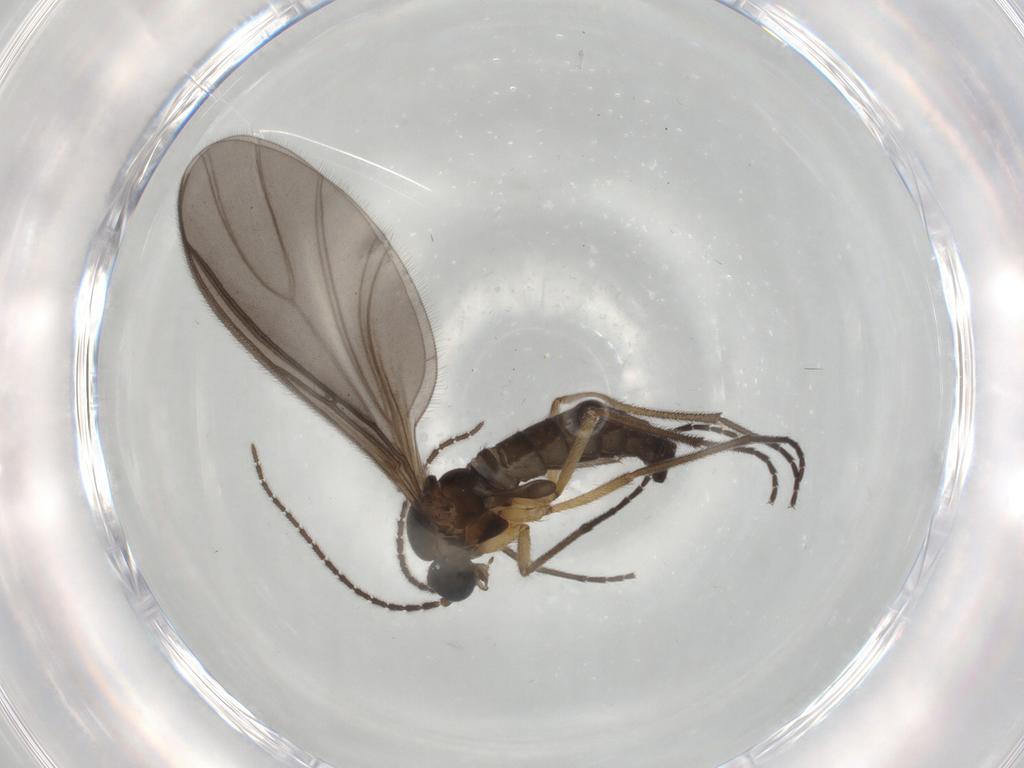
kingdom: Animalia
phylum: Arthropoda
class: Insecta
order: Diptera
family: Sciaridae
